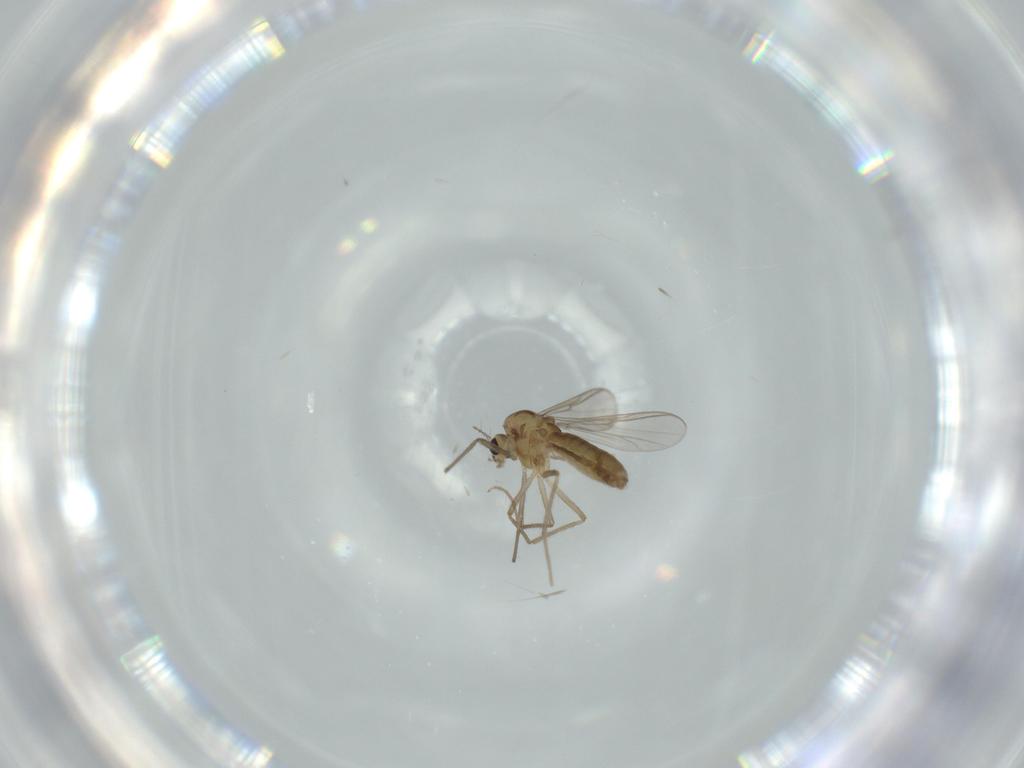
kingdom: Animalia
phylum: Arthropoda
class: Insecta
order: Diptera
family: Chironomidae
